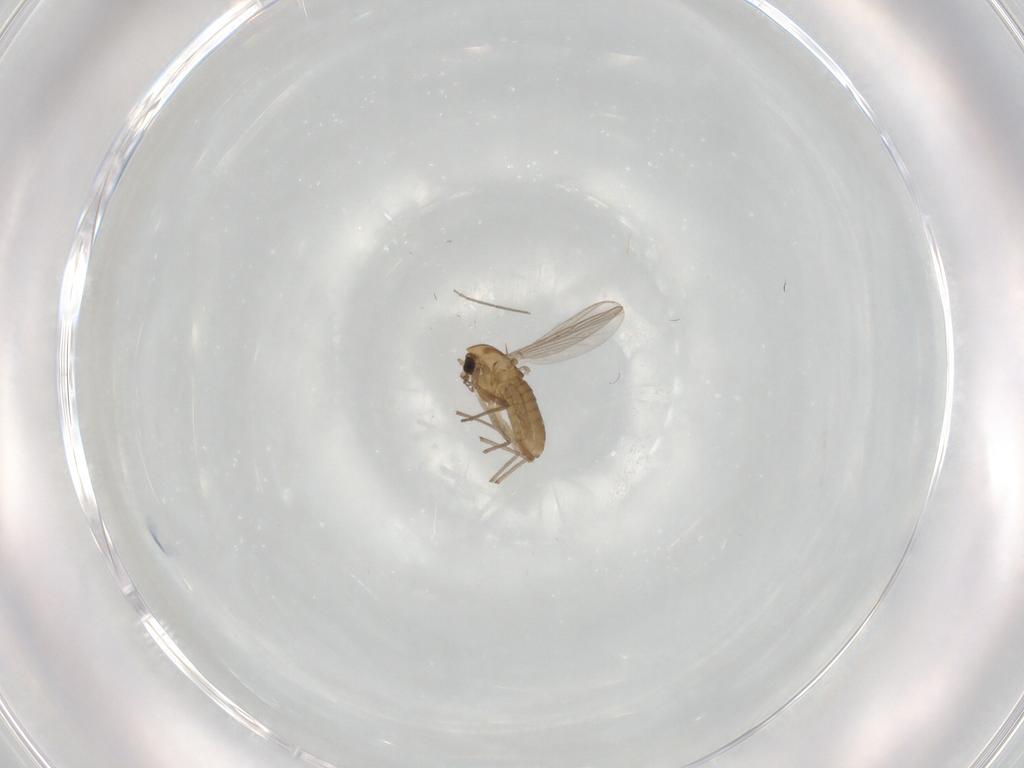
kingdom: Animalia
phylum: Arthropoda
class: Insecta
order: Diptera
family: Chironomidae
